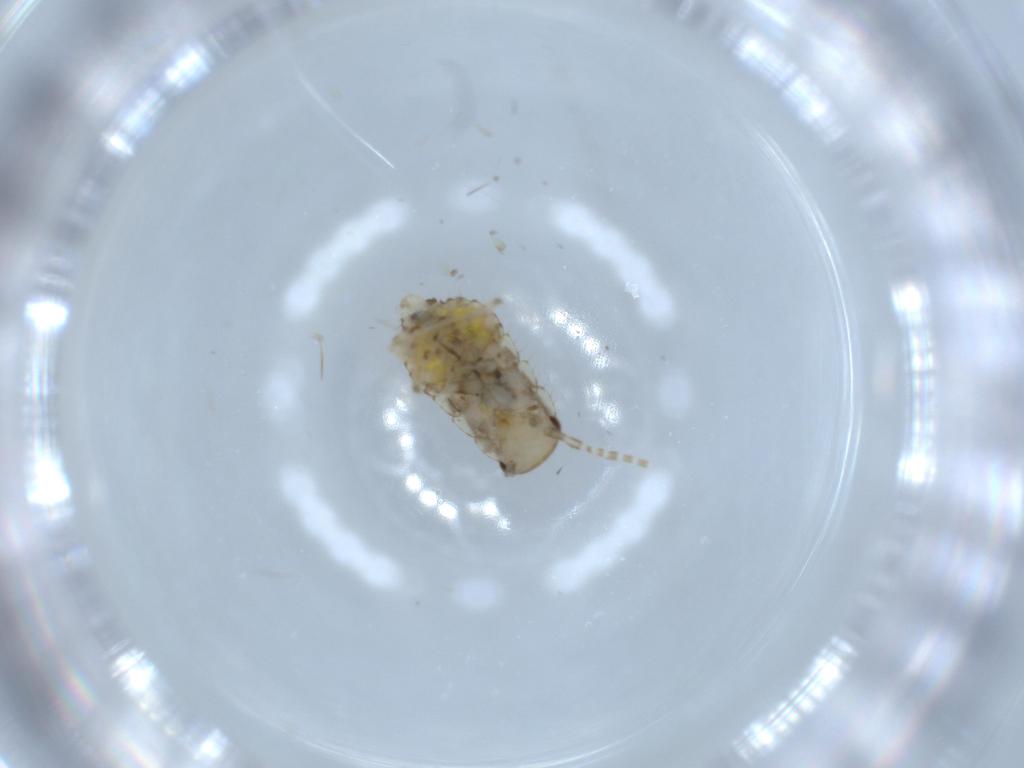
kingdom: Animalia
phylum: Arthropoda
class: Insecta
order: Blattodea
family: Ectobiidae
